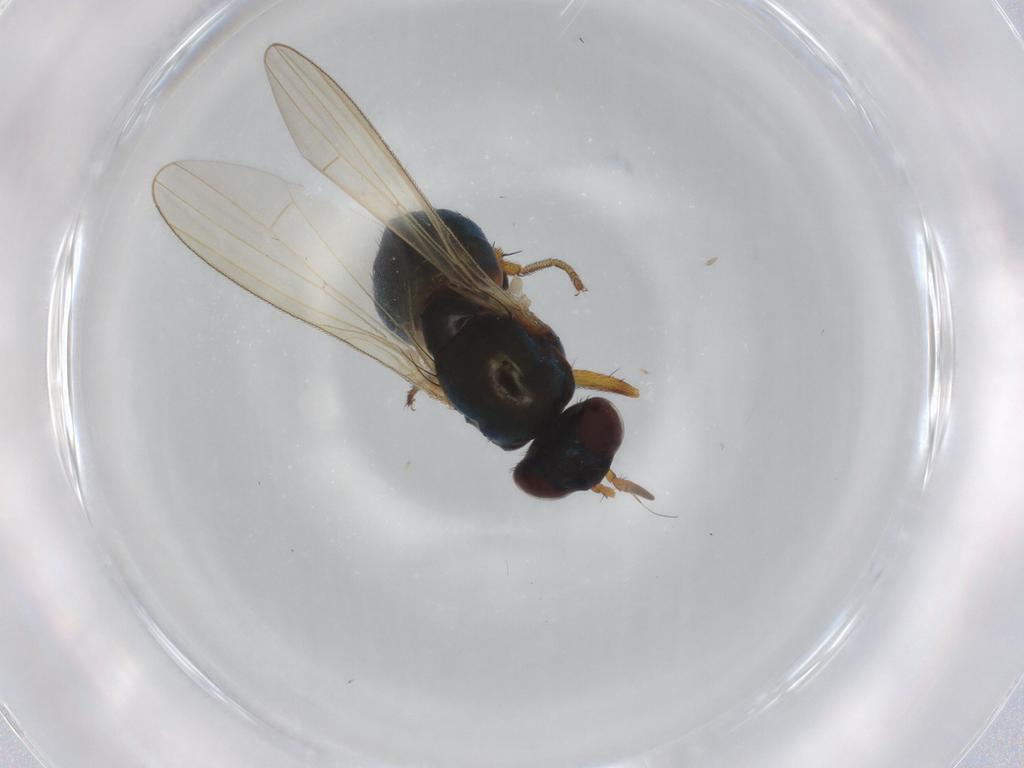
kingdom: Animalia
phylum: Arthropoda
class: Insecta
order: Diptera
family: Lauxaniidae
